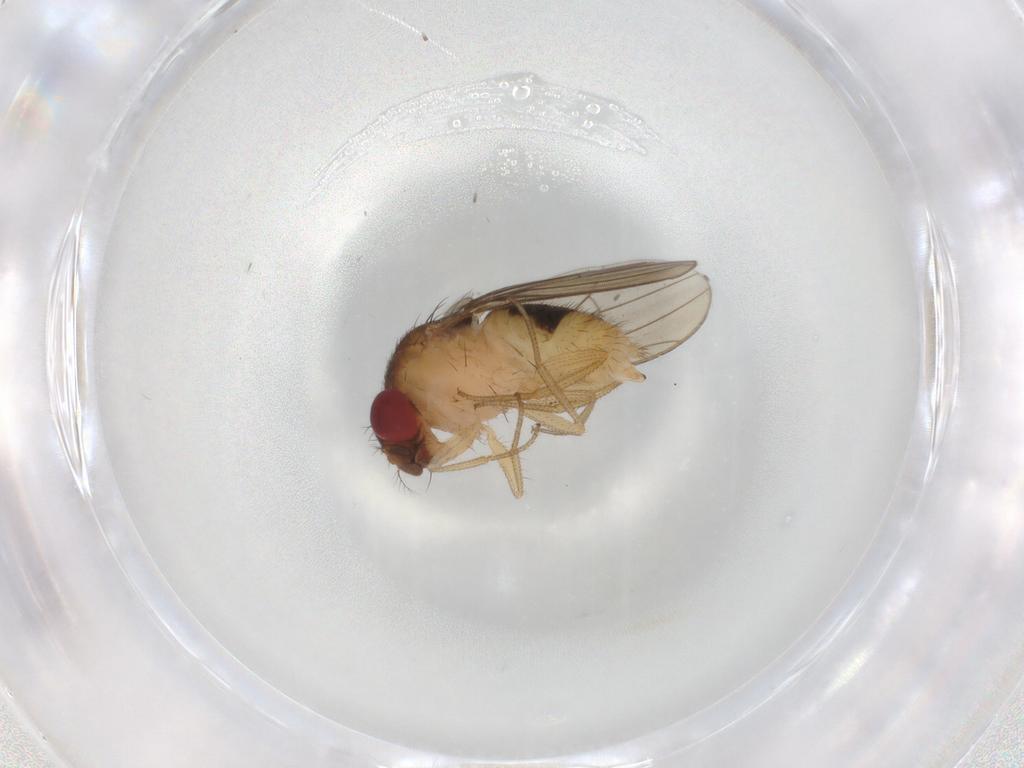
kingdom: Animalia
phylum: Arthropoda
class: Insecta
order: Diptera
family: Drosophilidae
